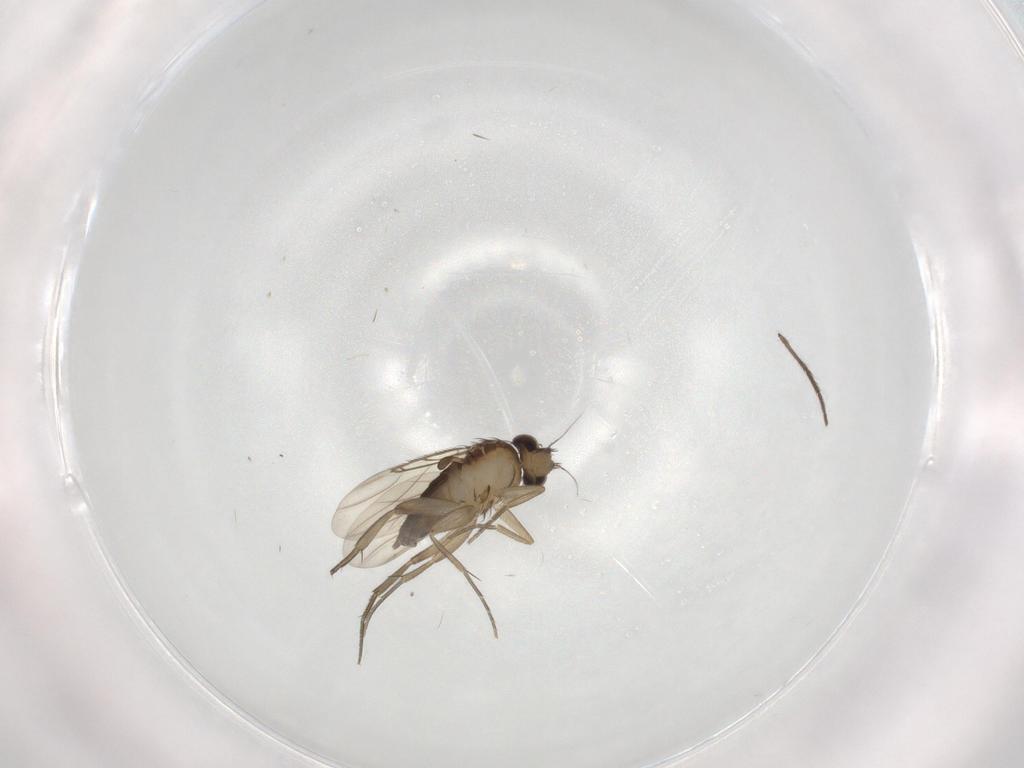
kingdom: Animalia
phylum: Arthropoda
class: Insecta
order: Diptera
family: Phoridae
